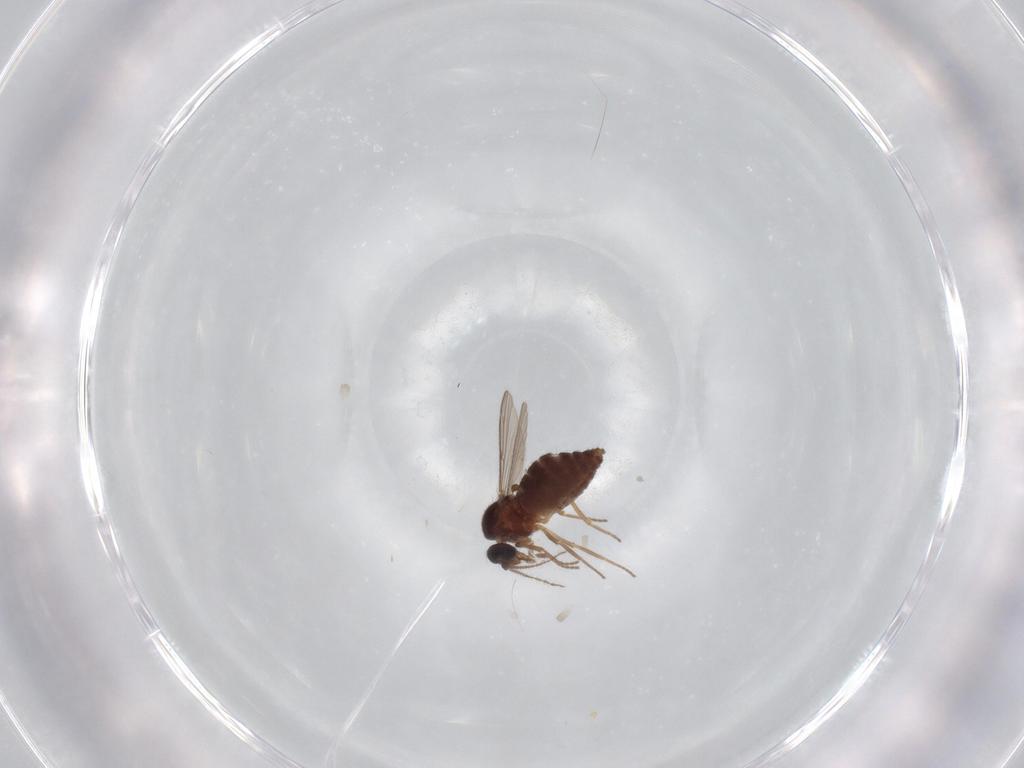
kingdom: Animalia
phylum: Arthropoda
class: Insecta
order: Diptera
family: Ceratopogonidae
